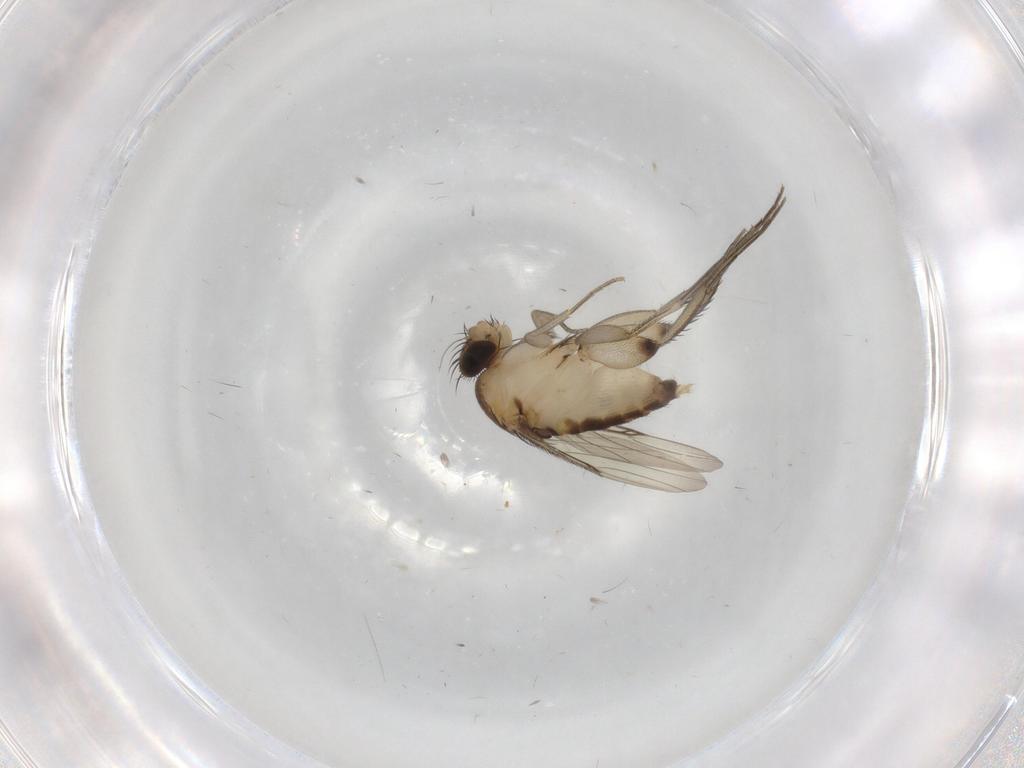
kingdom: Animalia
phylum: Arthropoda
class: Insecta
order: Diptera
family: Phoridae
